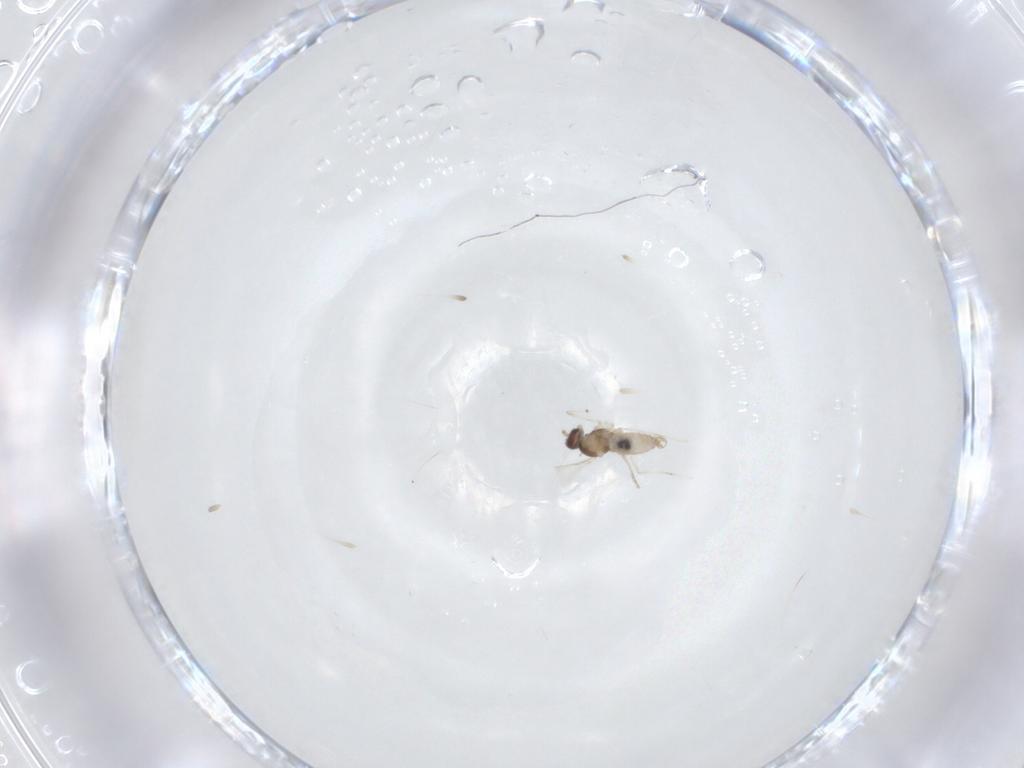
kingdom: Animalia
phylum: Arthropoda
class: Insecta
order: Diptera
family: Cecidomyiidae
